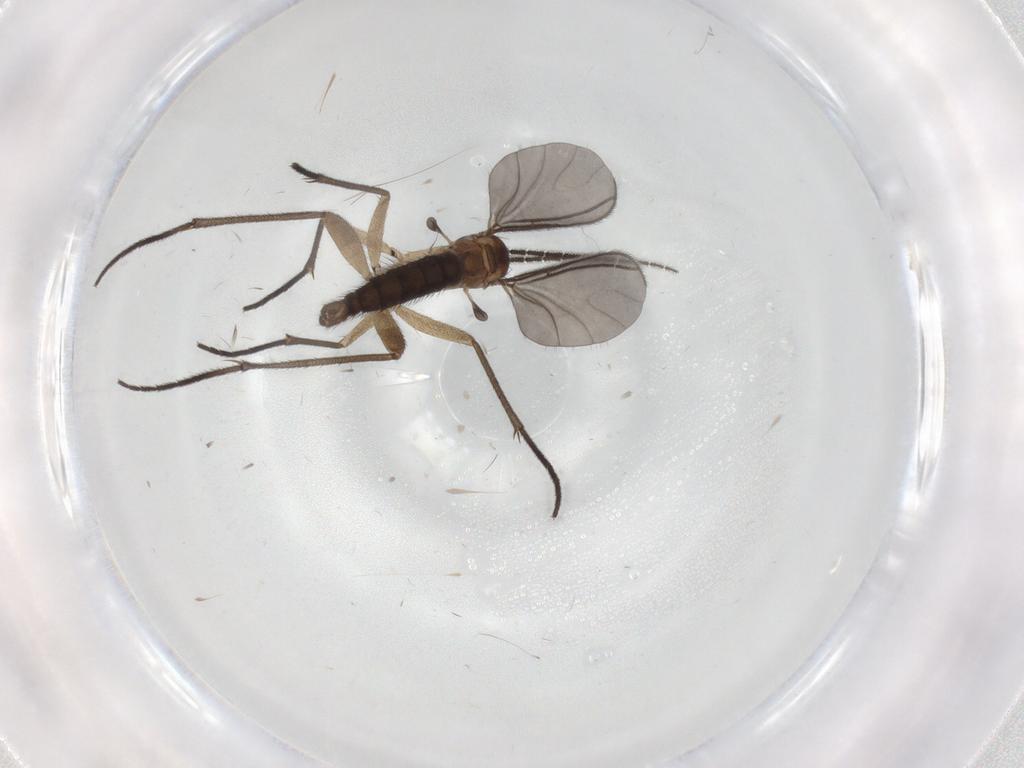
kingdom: Animalia
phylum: Arthropoda
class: Insecta
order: Diptera
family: Sciaridae
